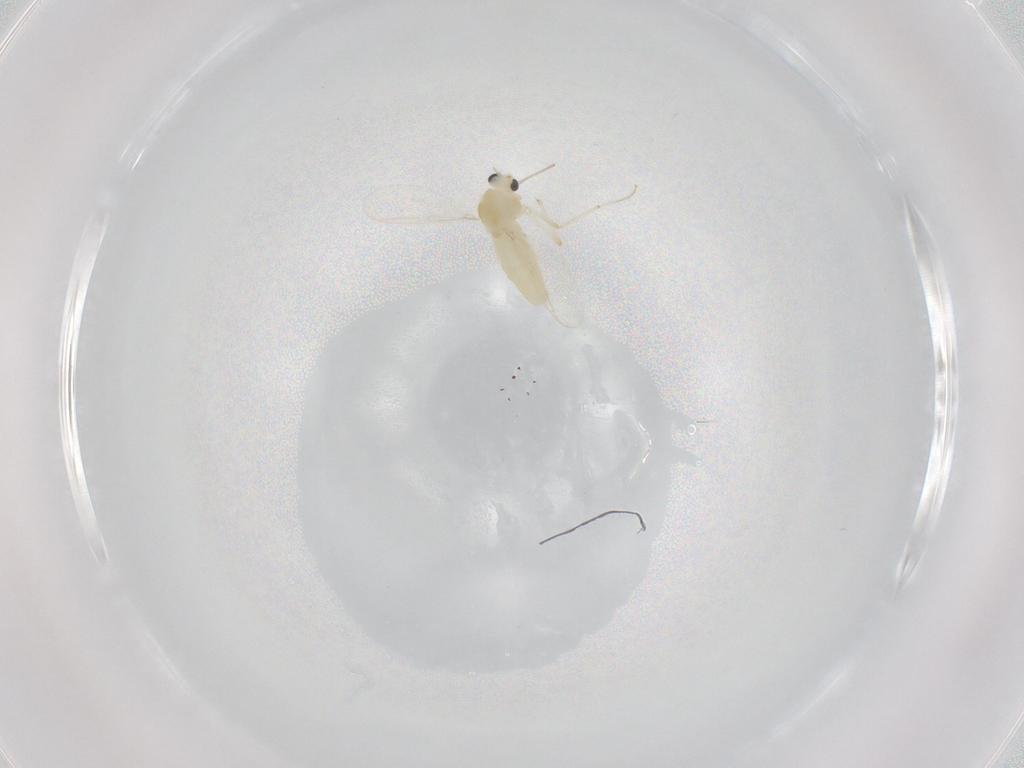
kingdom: Animalia
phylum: Arthropoda
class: Insecta
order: Diptera
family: Chironomidae
